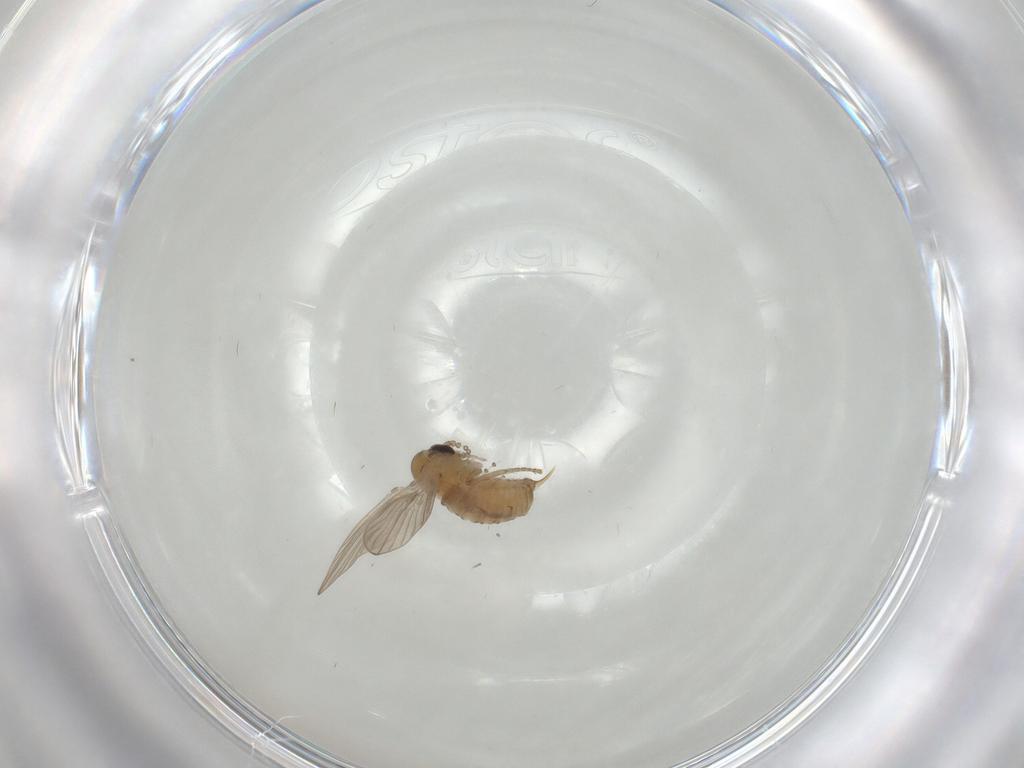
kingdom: Animalia
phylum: Arthropoda
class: Insecta
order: Diptera
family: Psychodidae
